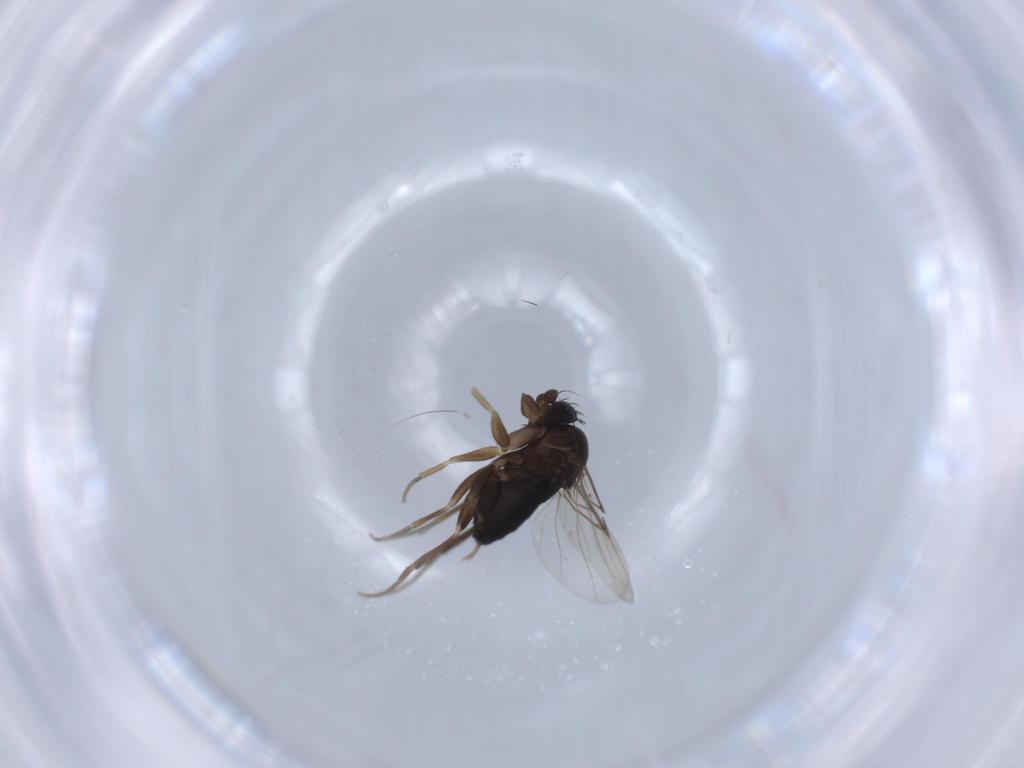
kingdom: Animalia
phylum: Arthropoda
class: Insecta
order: Diptera
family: Phoridae
